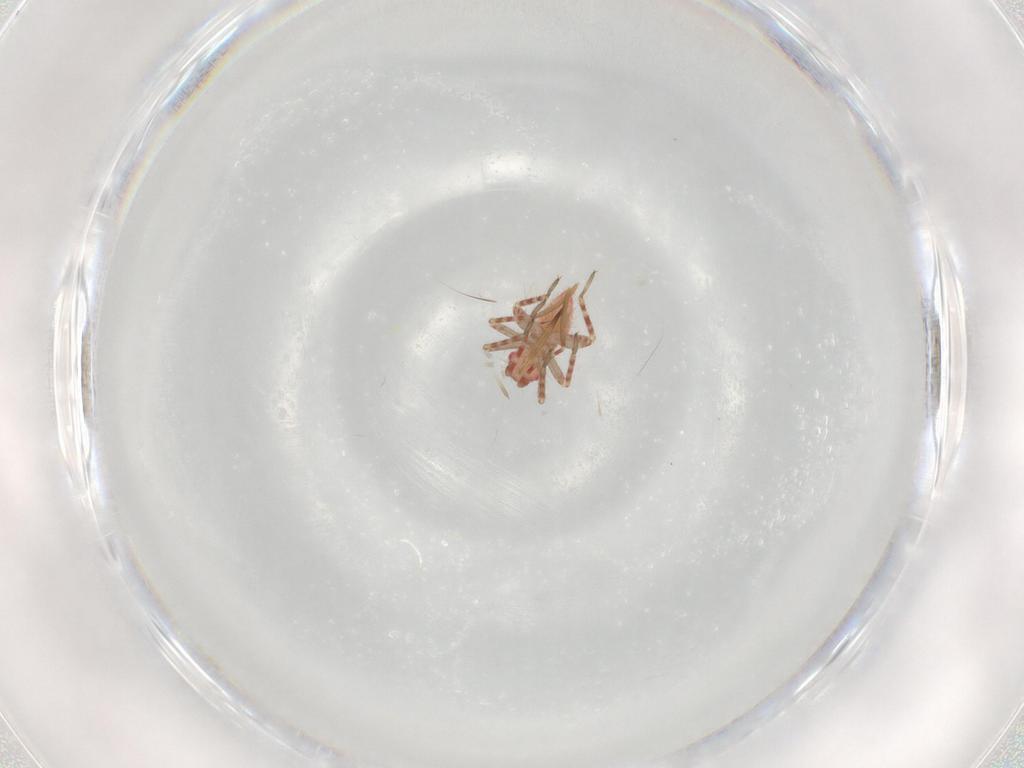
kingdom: Animalia
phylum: Arthropoda
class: Insecta
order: Hemiptera
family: Miridae
